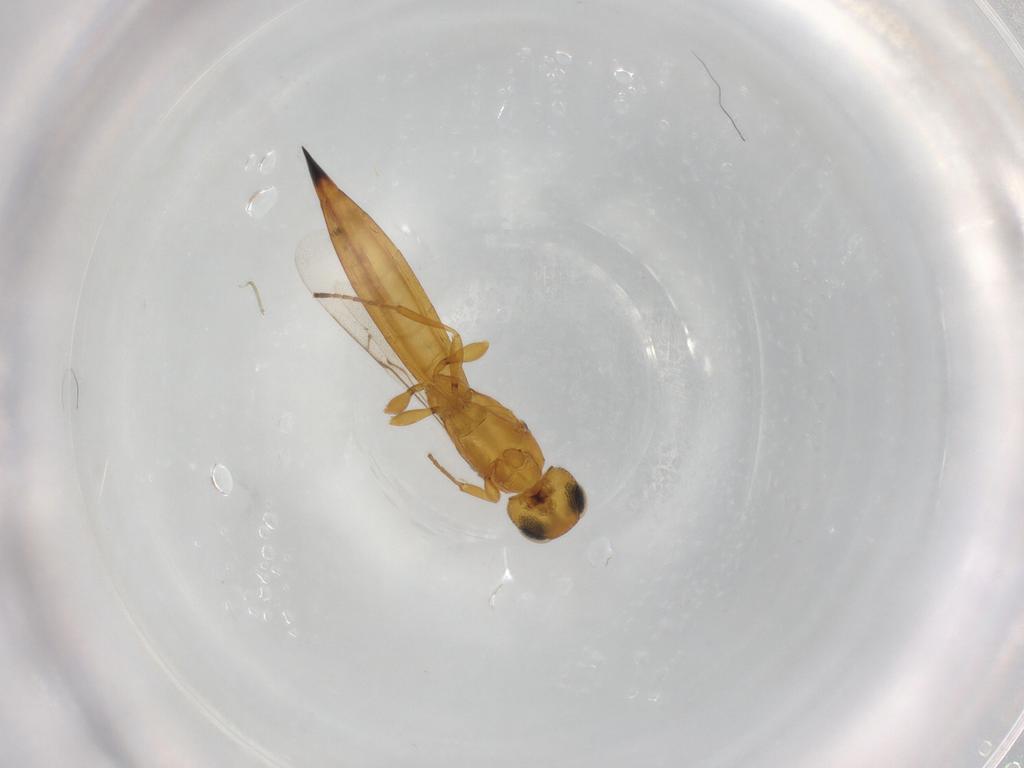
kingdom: Animalia
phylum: Arthropoda
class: Insecta
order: Hymenoptera
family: Scelionidae
